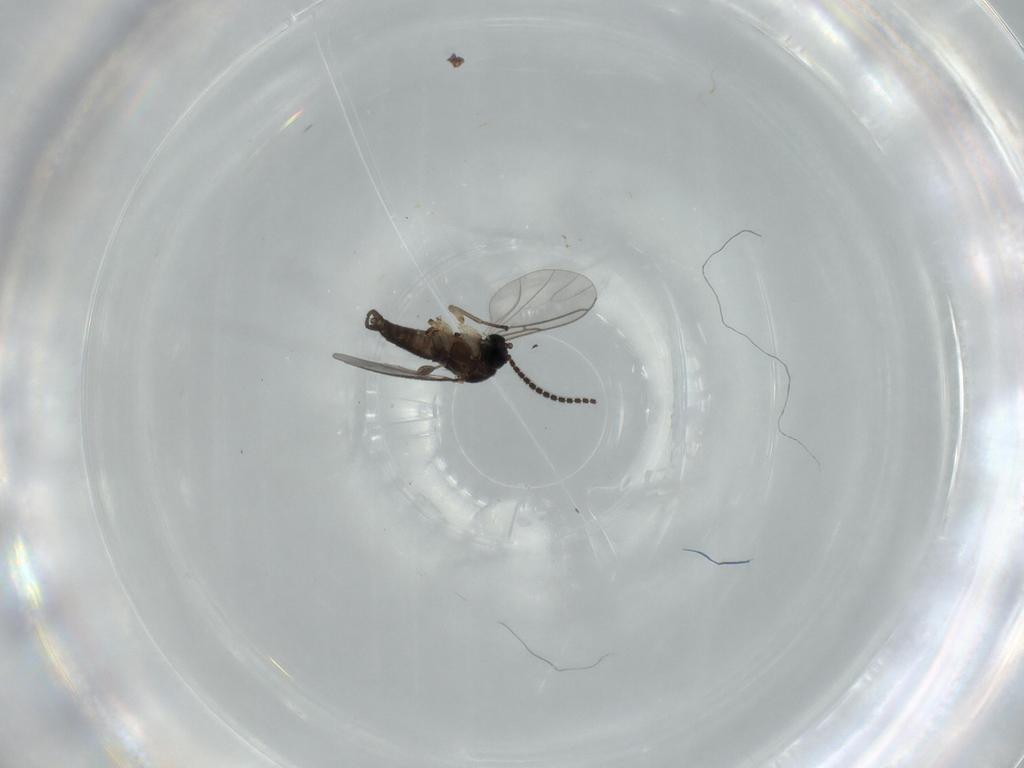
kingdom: Animalia
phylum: Arthropoda
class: Insecta
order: Diptera
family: Sciaridae
